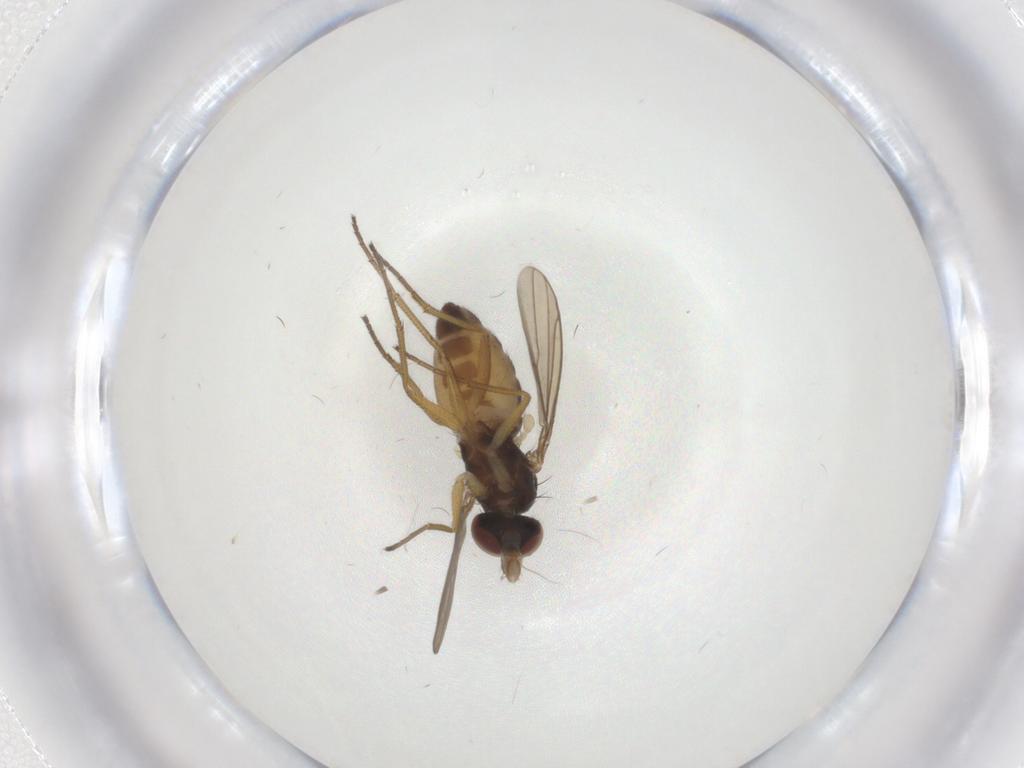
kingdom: Animalia
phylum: Arthropoda
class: Insecta
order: Diptera
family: Dolichopodidae
